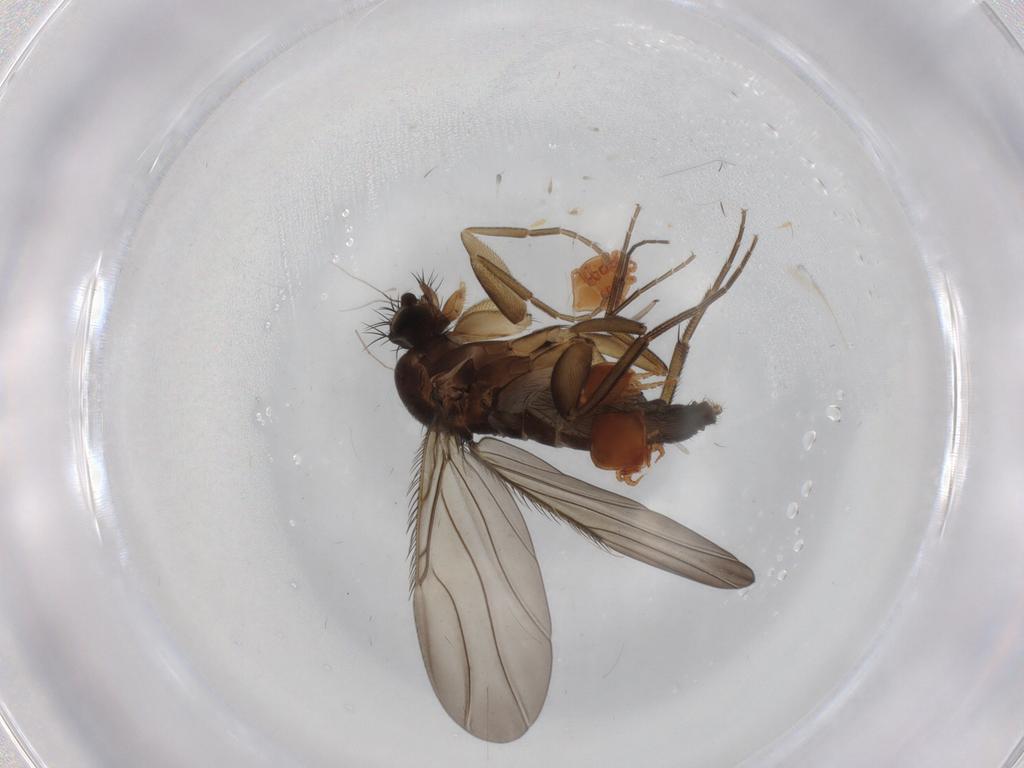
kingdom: Animalia
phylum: Arthropoda
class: Insecta
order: Diptera
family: Phoridae
